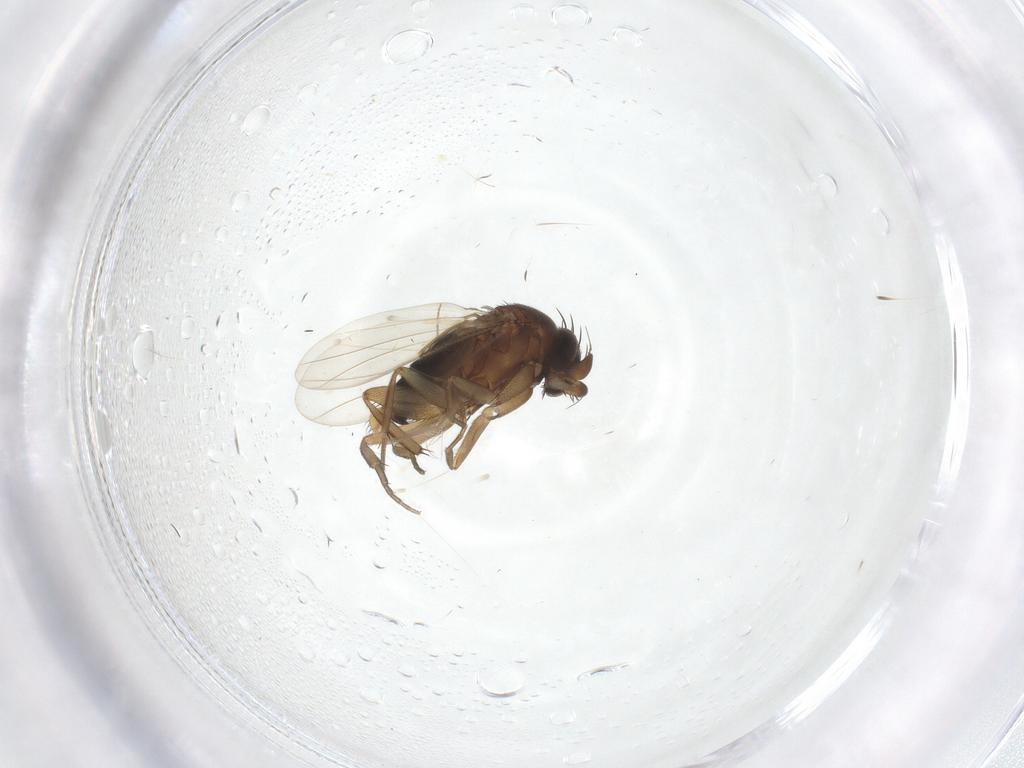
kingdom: Animalia
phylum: Arthropoda
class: Insecta
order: Diptera
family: Phoridae
